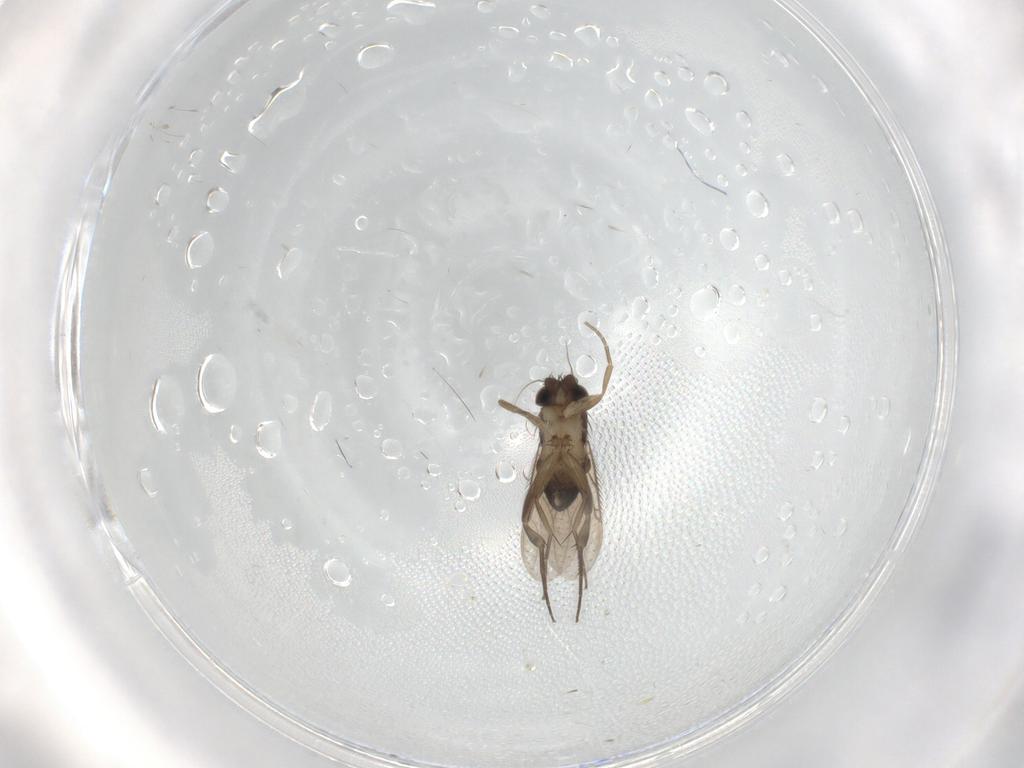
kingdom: Animalia
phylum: Arthropoda
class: Insecta
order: Diptera
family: Phoridae
